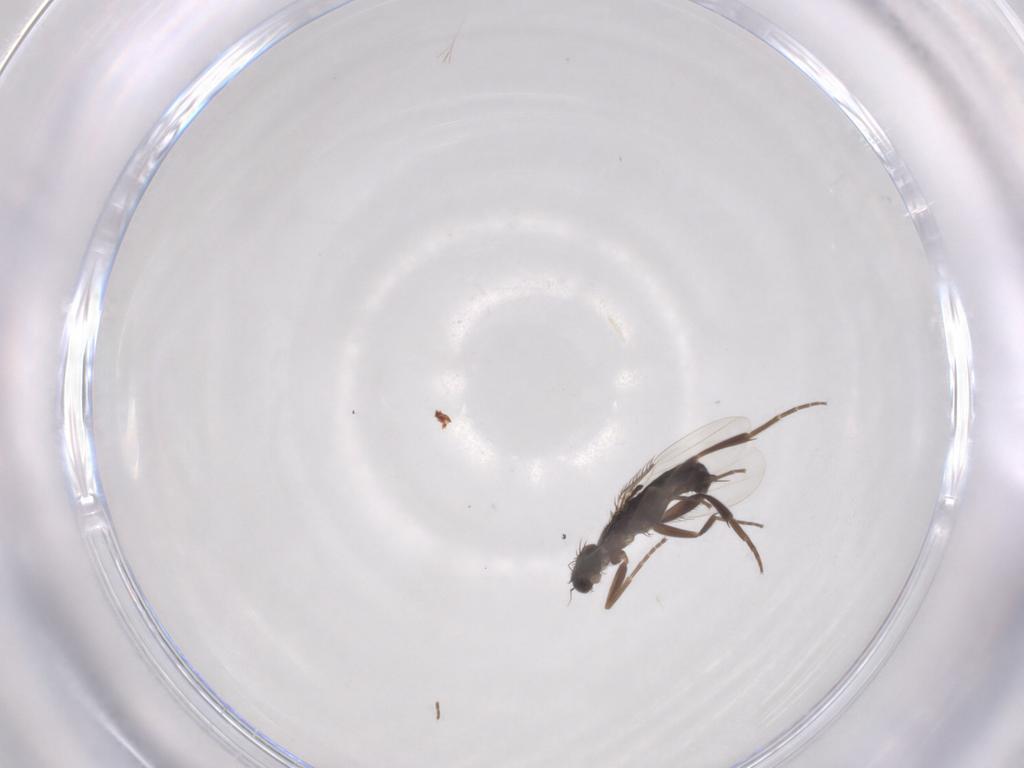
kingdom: Animalia
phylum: Arthropoda
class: Insecta
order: Diptera
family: Phoridae
